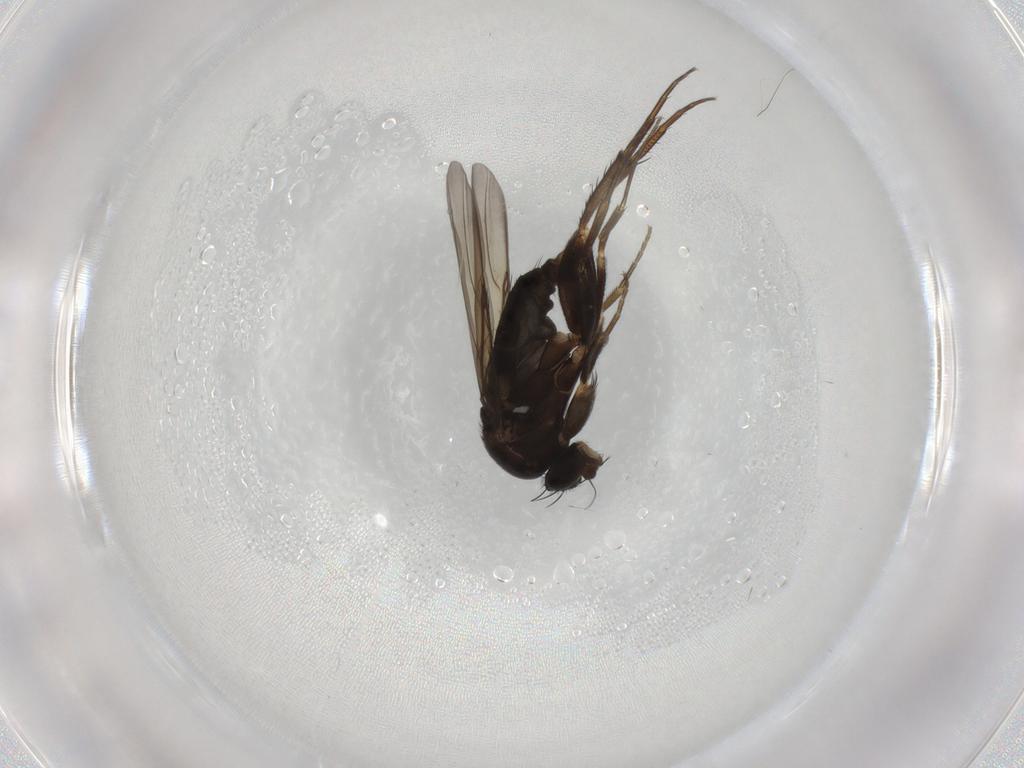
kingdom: Animalia
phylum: Arthropoda
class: Insecta
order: Diptera
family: Phoridae
